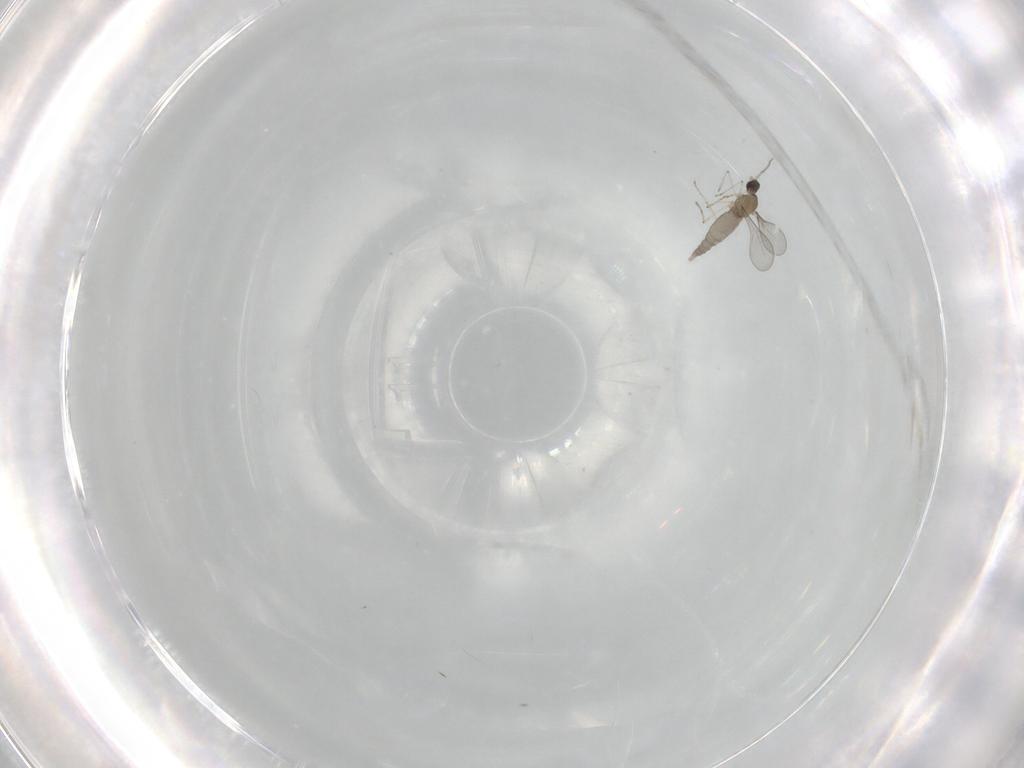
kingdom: Animalia
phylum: Arthropoda
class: Insecta
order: Diptera
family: Cecidomyiidae
